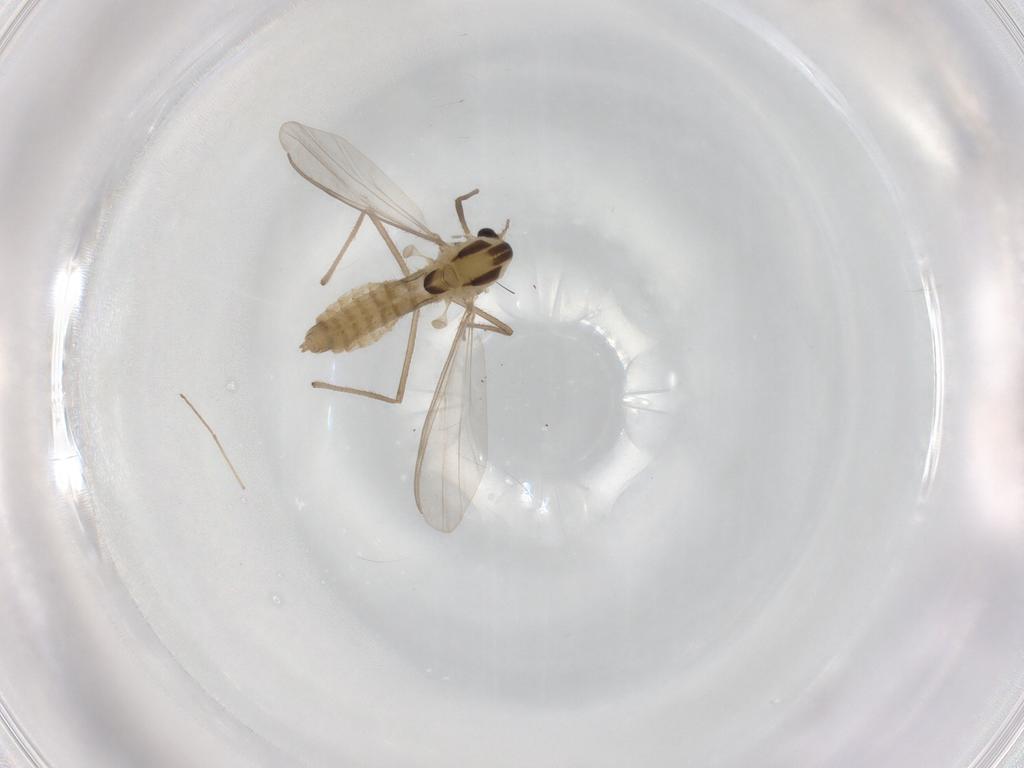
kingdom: Animalia
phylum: Arthropoda
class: Insecta
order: Diptera
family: Chironomidae
